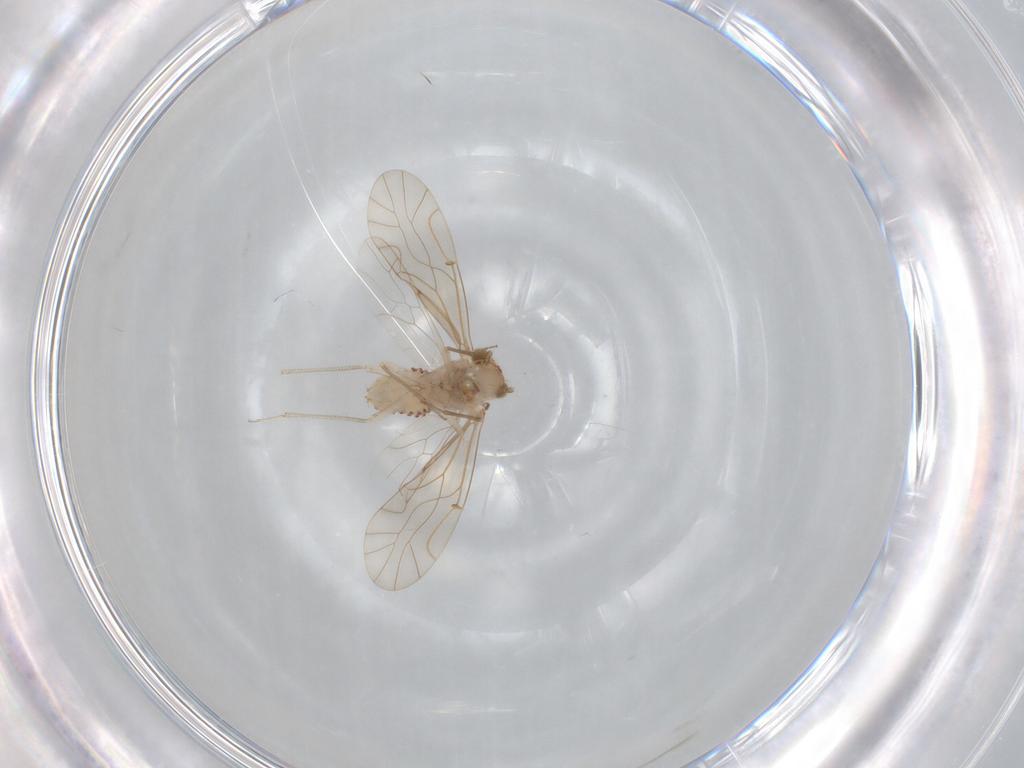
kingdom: Animalia
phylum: Arthropoda
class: Insecta
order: Psocodea
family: Lachesillidae
